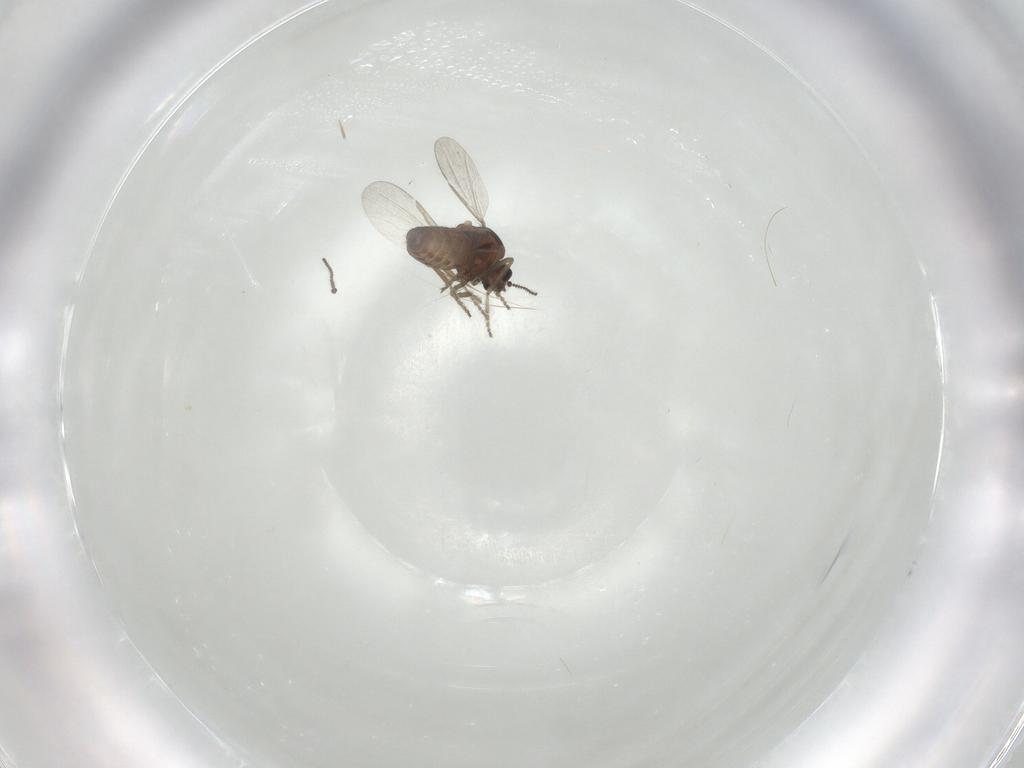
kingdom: Animalia
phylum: Arthropoda
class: Insecta
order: Diptera
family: Ceratopogonidae
